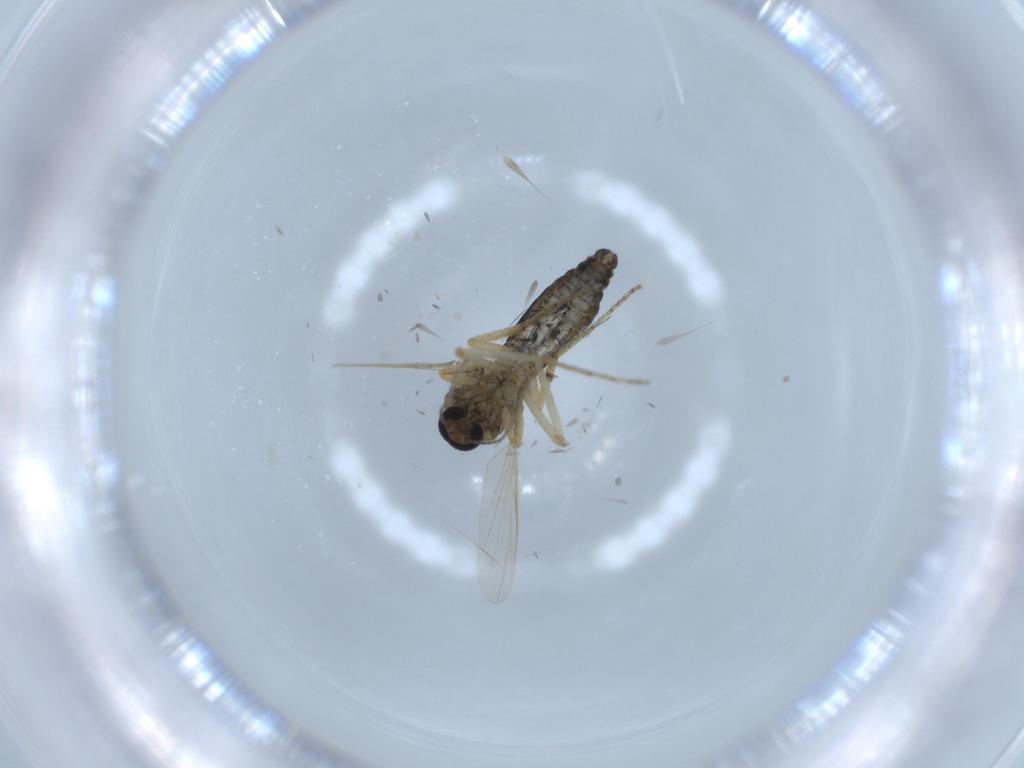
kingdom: Animalia
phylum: Arthropoda
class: Insecta
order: Diptera
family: Ceratopogonidae
